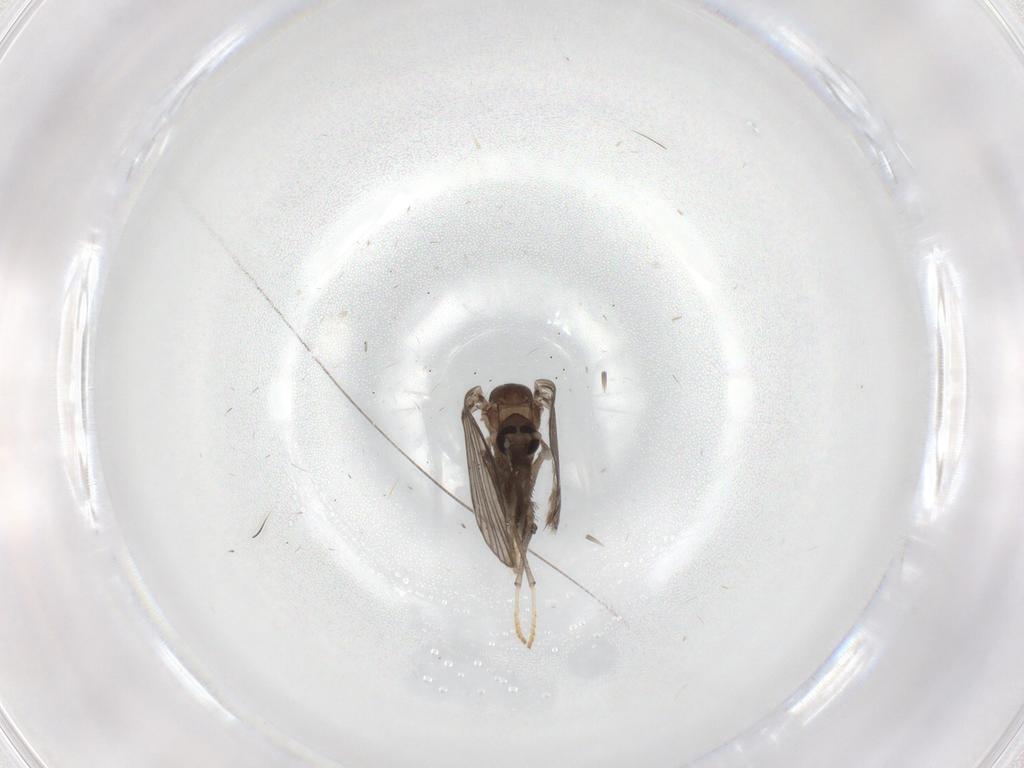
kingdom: Animalia
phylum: Arthropoda
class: Insecta
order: Diptera
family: Psychodidae
